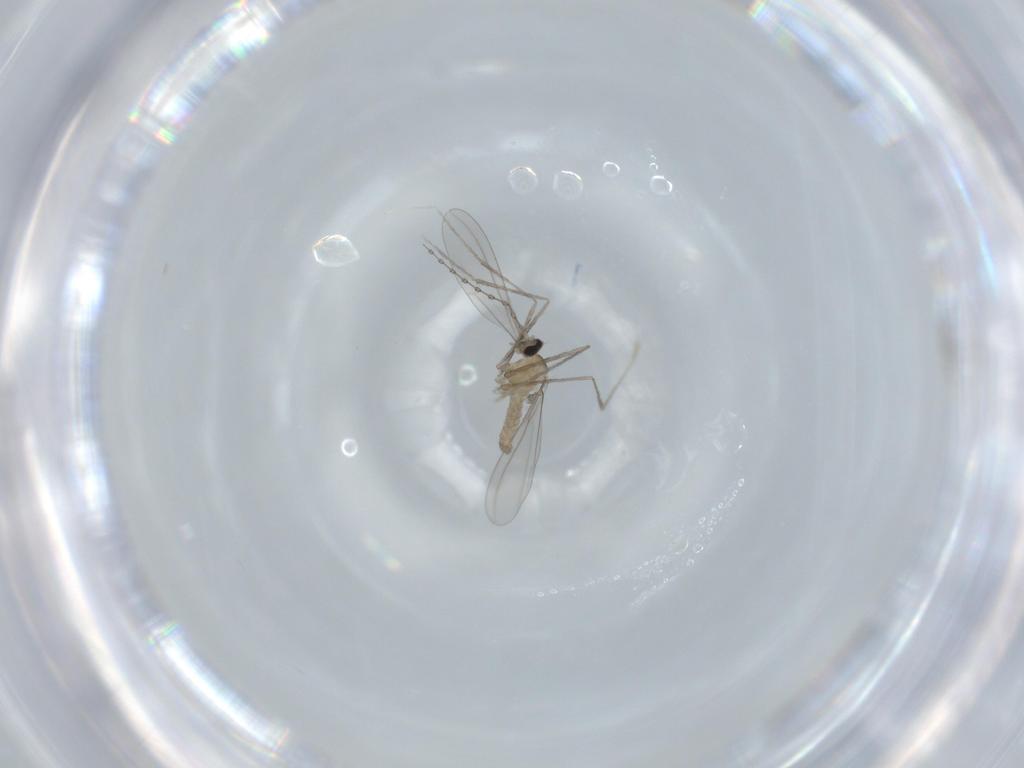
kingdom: Animalia
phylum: Arthropoda
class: Insecta
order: Diptera
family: Cecidomyiidae
